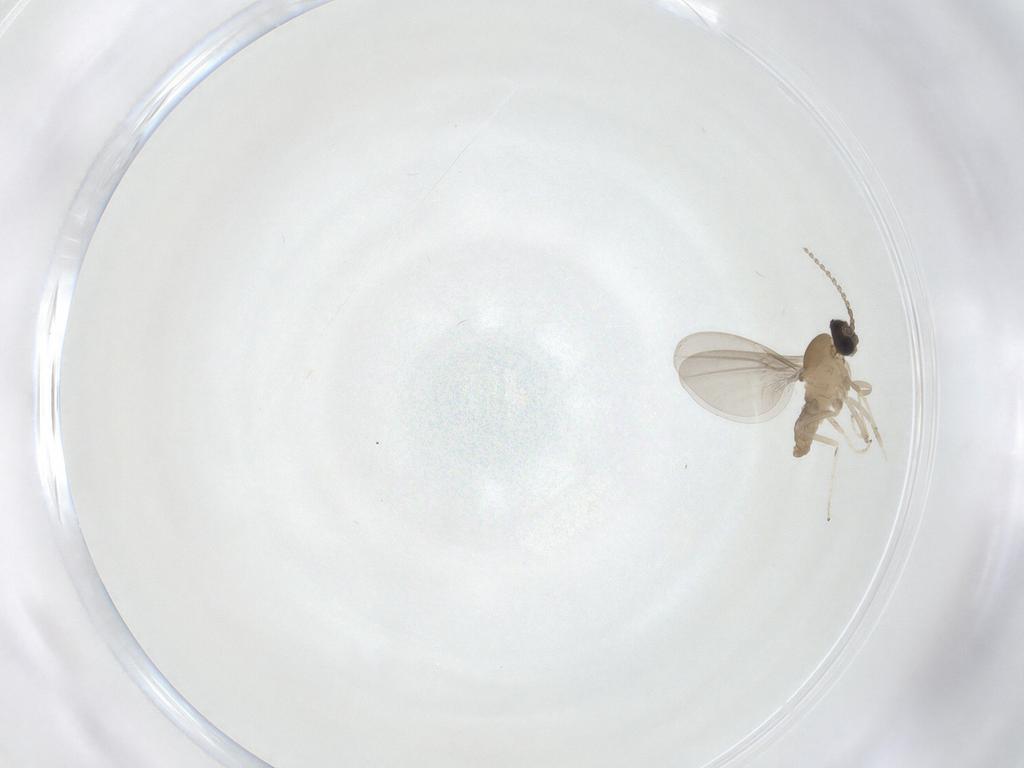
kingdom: Animalia
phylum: Arthropoda
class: Insecta
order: Diptera
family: Cecidomyiidae
